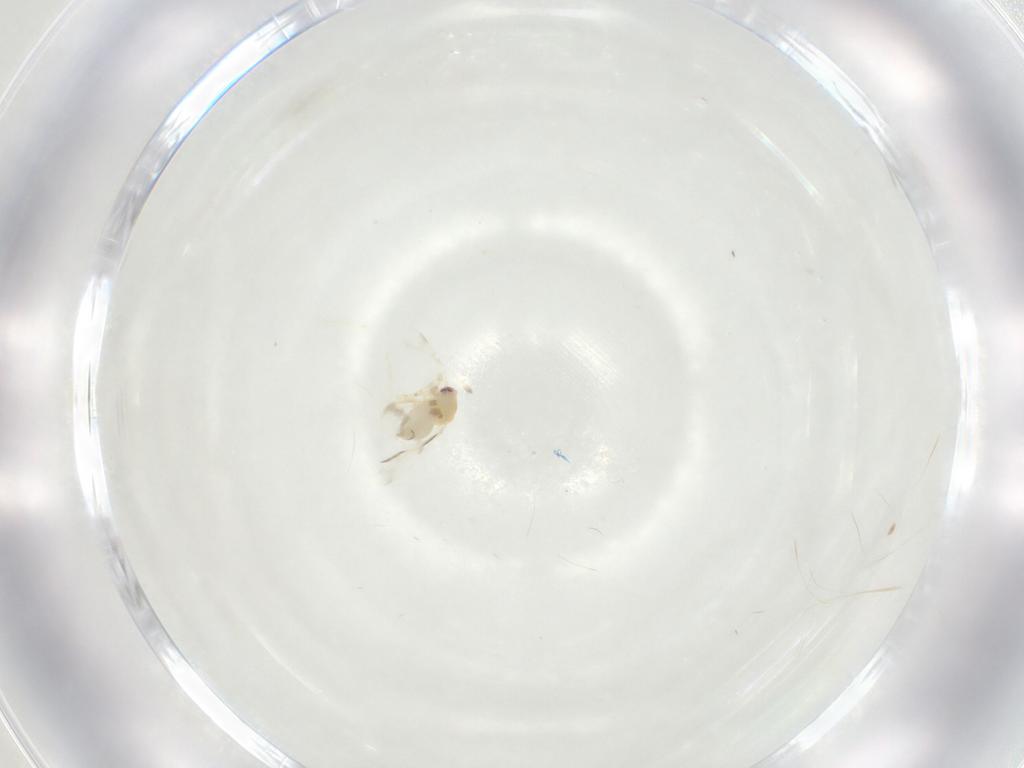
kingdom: Animalia
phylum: Arthropoda
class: Insecta
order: Hemiptera
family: Aleyrodidae
